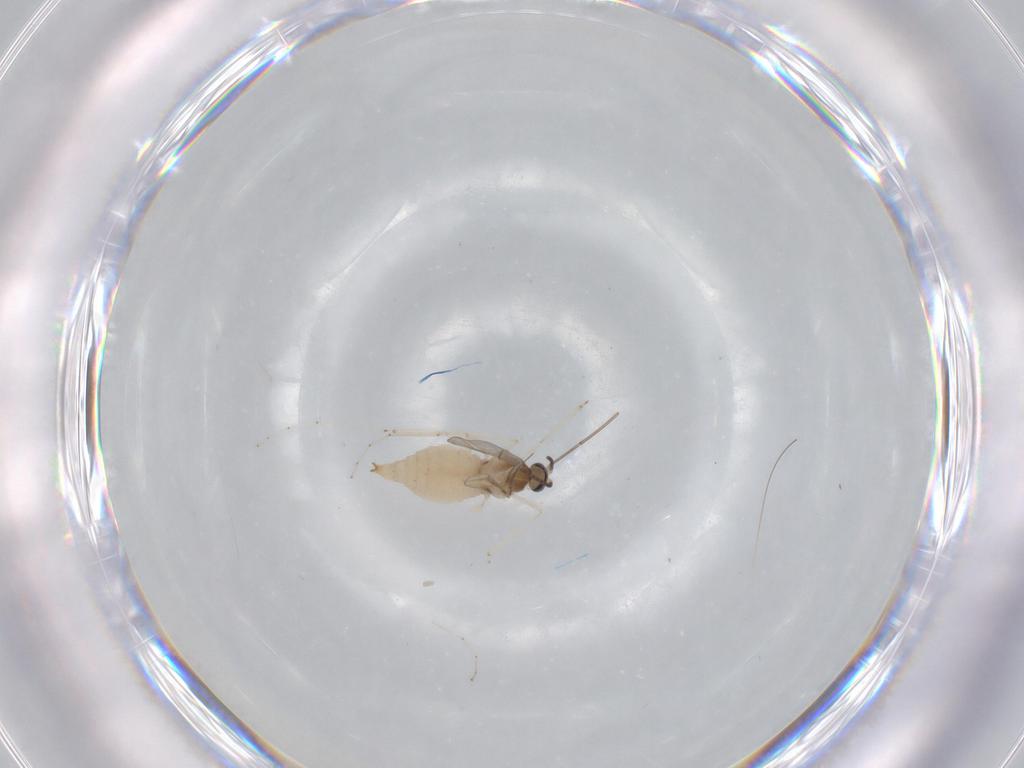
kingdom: Animalia
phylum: Arthropoda
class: Insecta
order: Diptera
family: Cecidomyiidae
